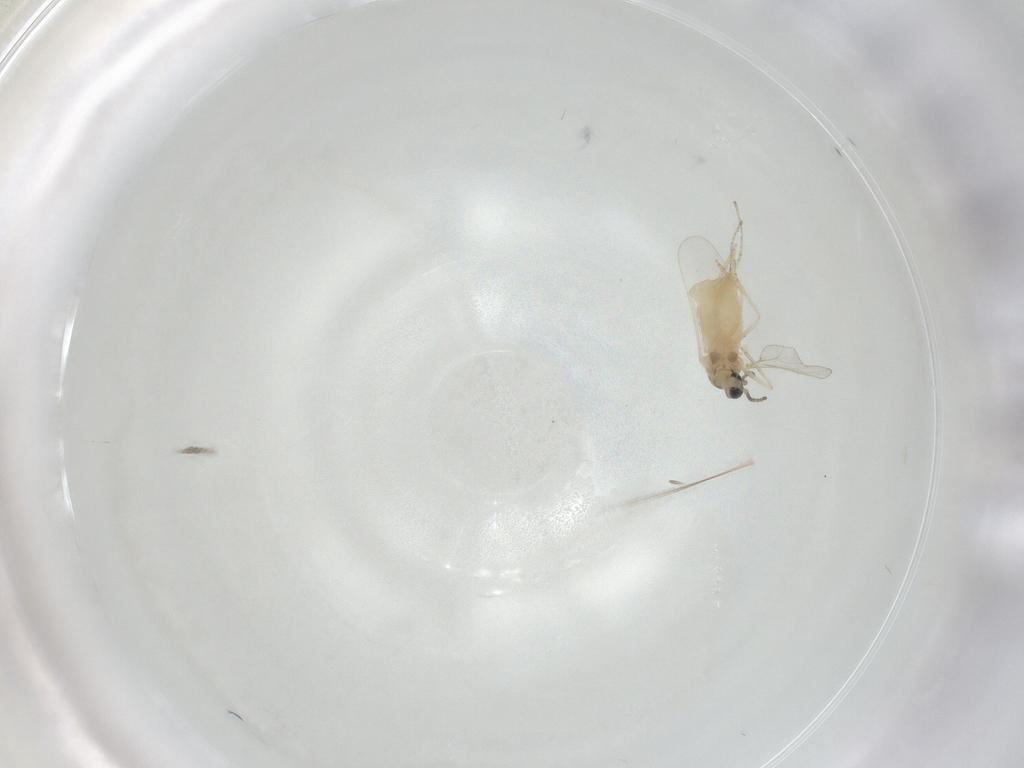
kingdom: Animalia
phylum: Arthropoda
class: Insecta
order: Diptera
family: Cecidomyiidae
